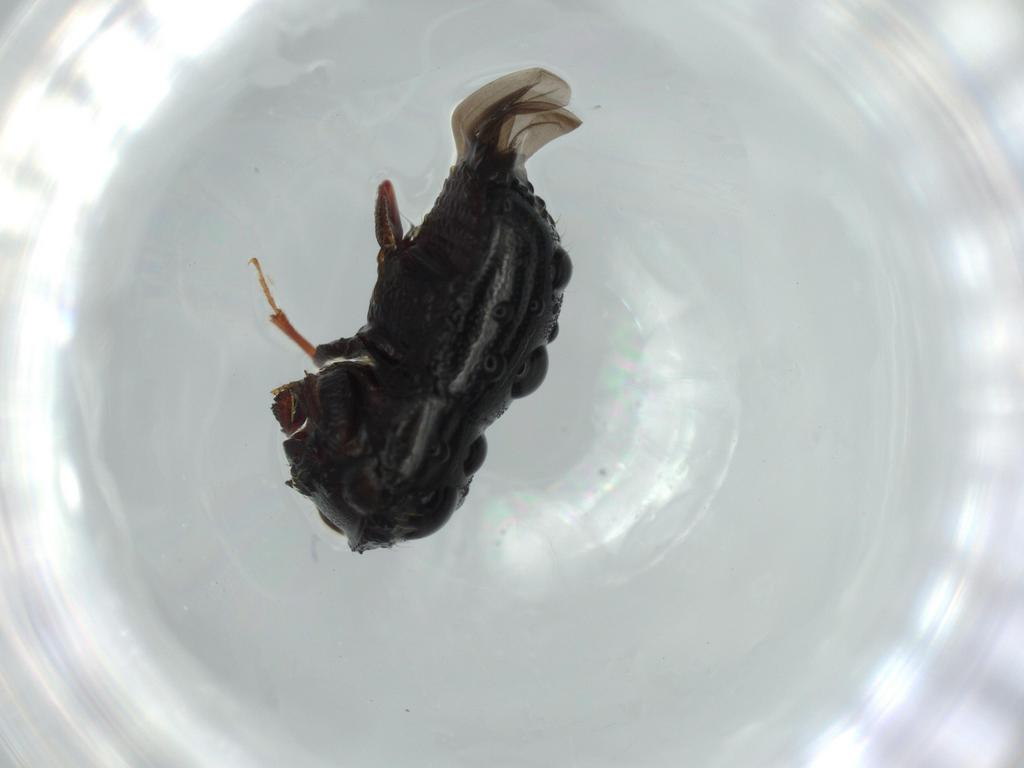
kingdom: Animalia
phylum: Arthropoda
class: Insecta
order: Coleoptera
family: Curculionidae
